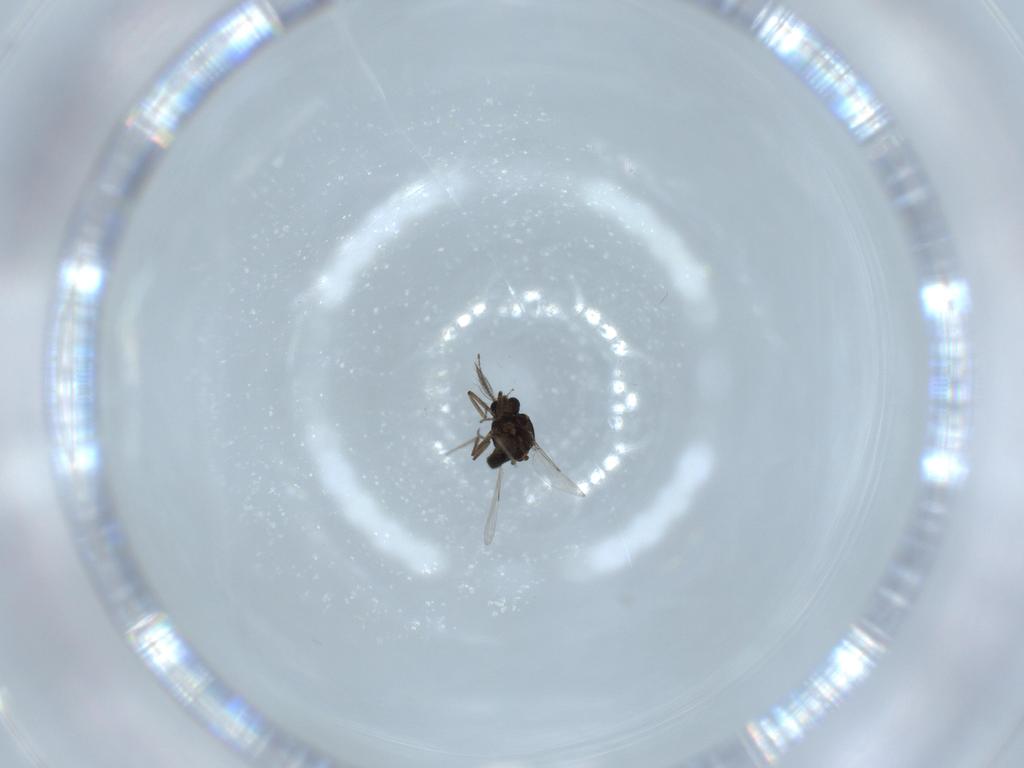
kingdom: Animalia
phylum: Arthropoda
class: Insecta
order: Diptera
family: Ceratopogonidae
